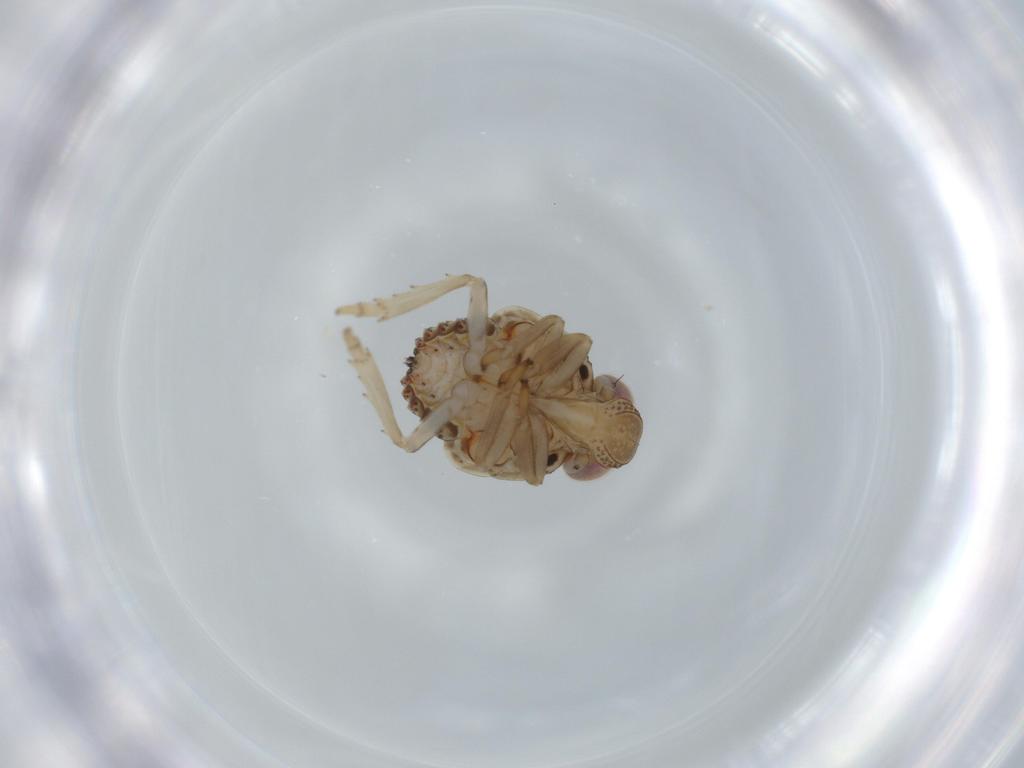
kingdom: Animalia
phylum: Arthropoda
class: Insecta
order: Hemiptera
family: Issidae
